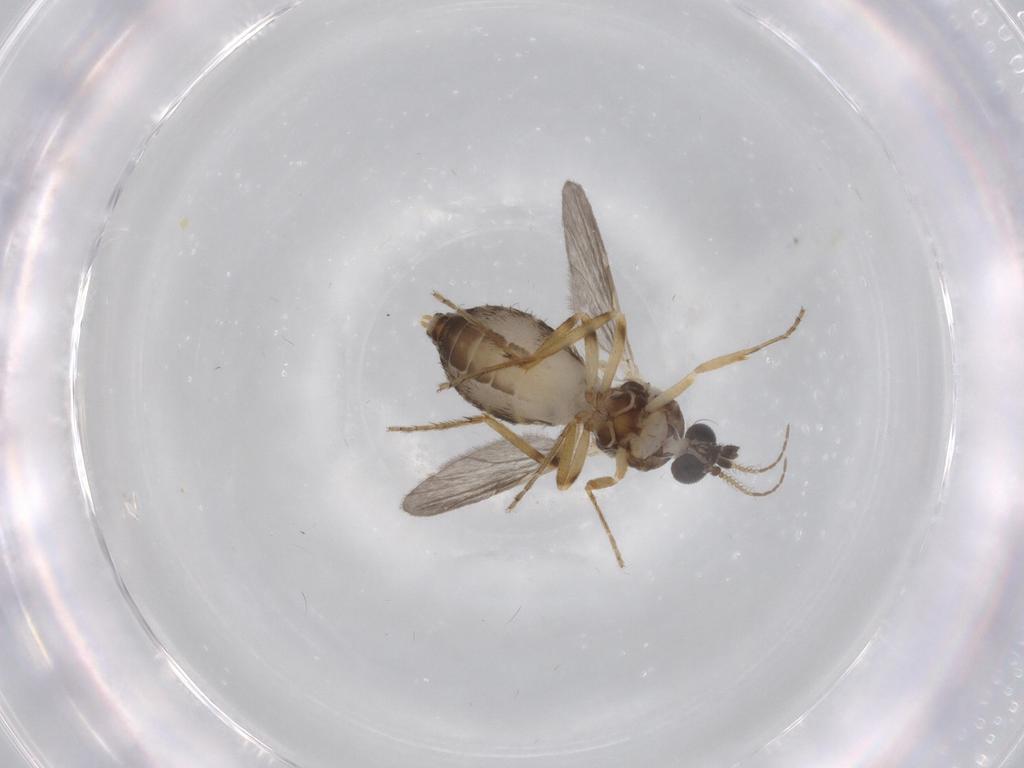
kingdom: Animalia
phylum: Arthropoda
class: Insecta
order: Diptera
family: Ceratopogonidae
